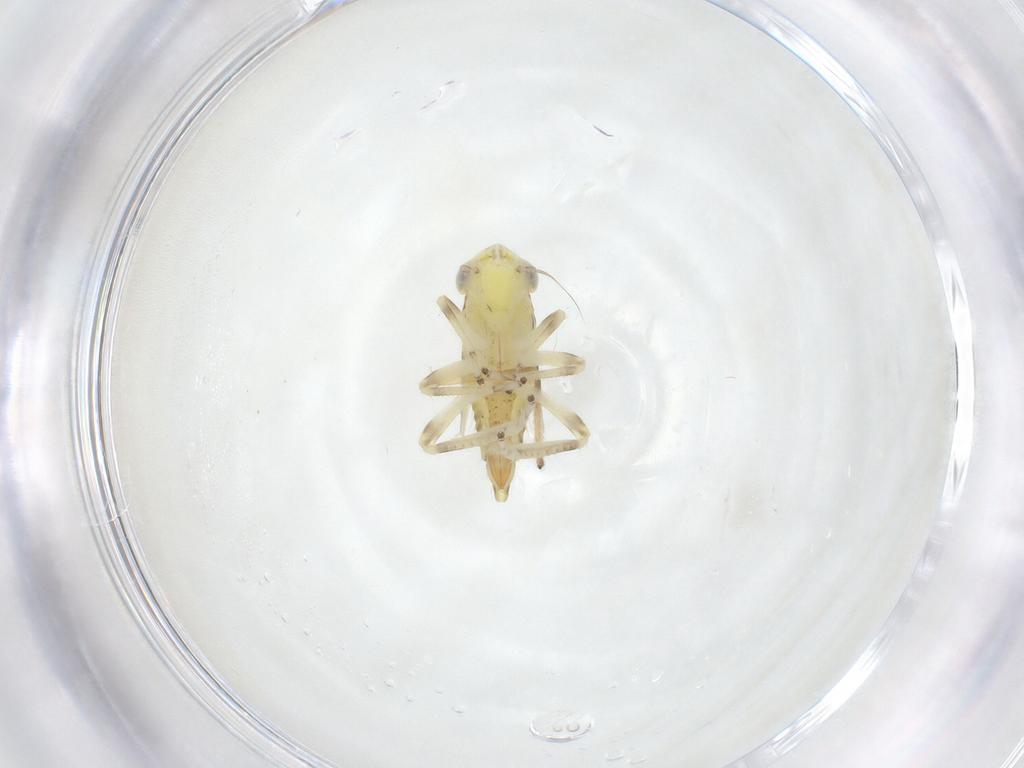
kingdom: Animalia
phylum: Arthropoda
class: Insecta
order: Hemiptera
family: Cicadellidae
